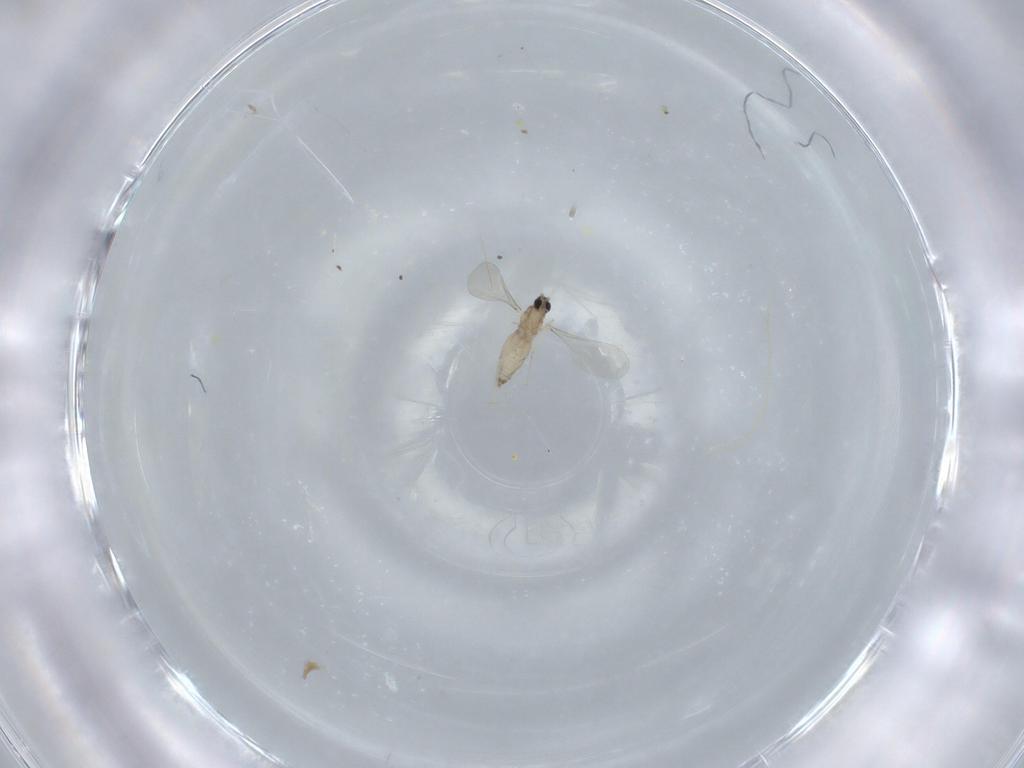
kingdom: Animalia
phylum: Arthropoda
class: Insecta
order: Diptera
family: Cecidomyiidae
